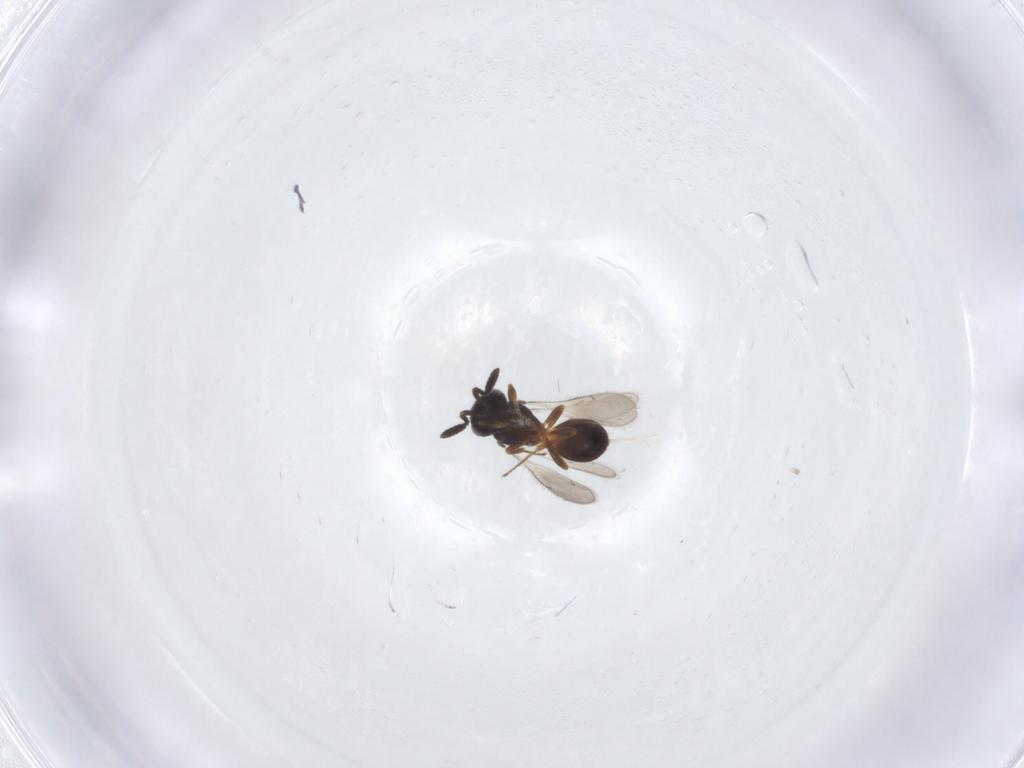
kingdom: Animalia
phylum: Arthropoda
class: Insecta
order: Hymenoptera
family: Scelionidae
